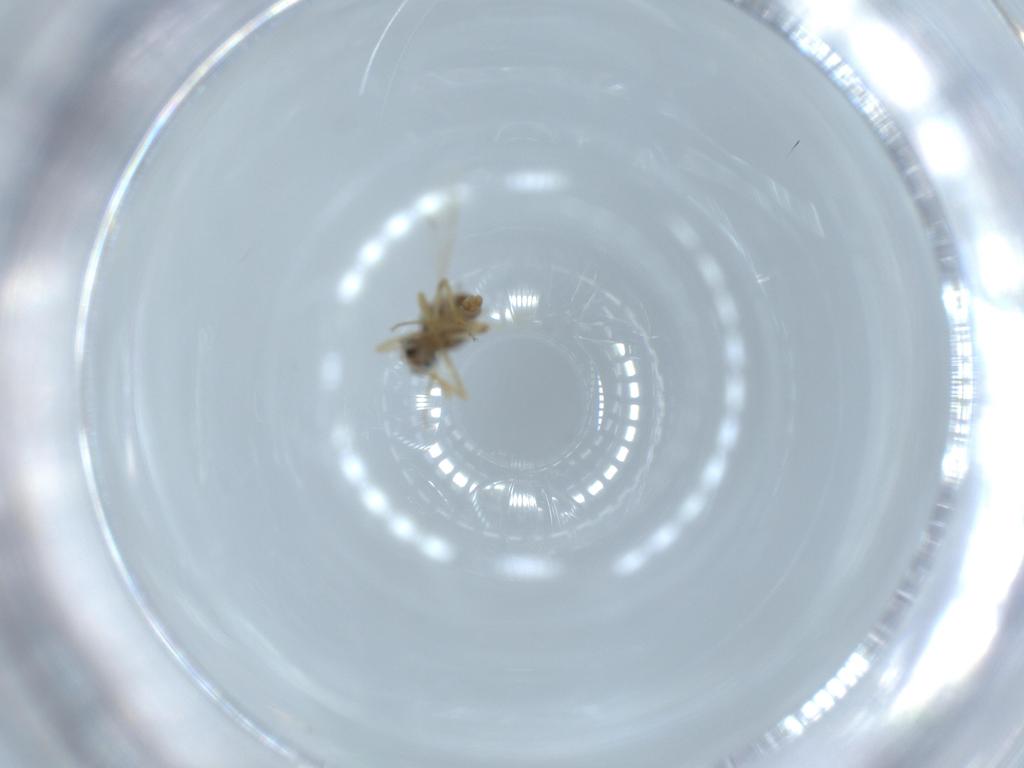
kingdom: Animalia
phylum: Arthropoda
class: Insecta
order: Diptera
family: Ceratopogonidae
